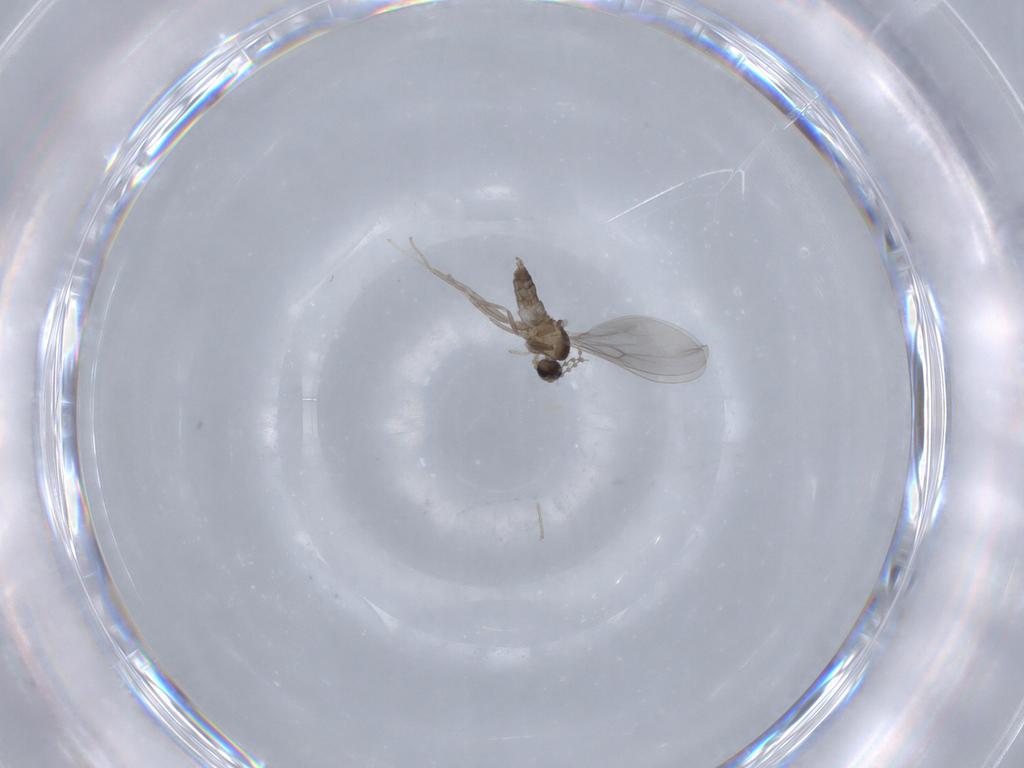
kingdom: Animalia
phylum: Arthropoda
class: Insecta
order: Diptera
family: Cecidomyiidae
